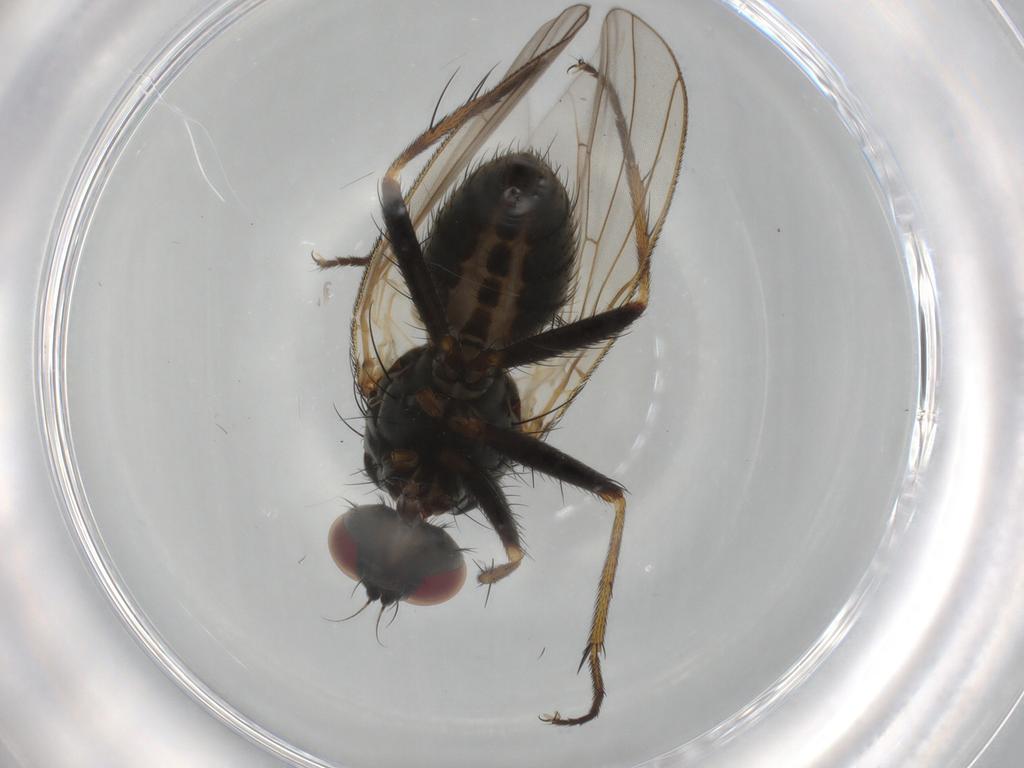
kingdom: Animalia
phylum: Arthropoda
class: Insecta
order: Diptera
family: Muscidae
